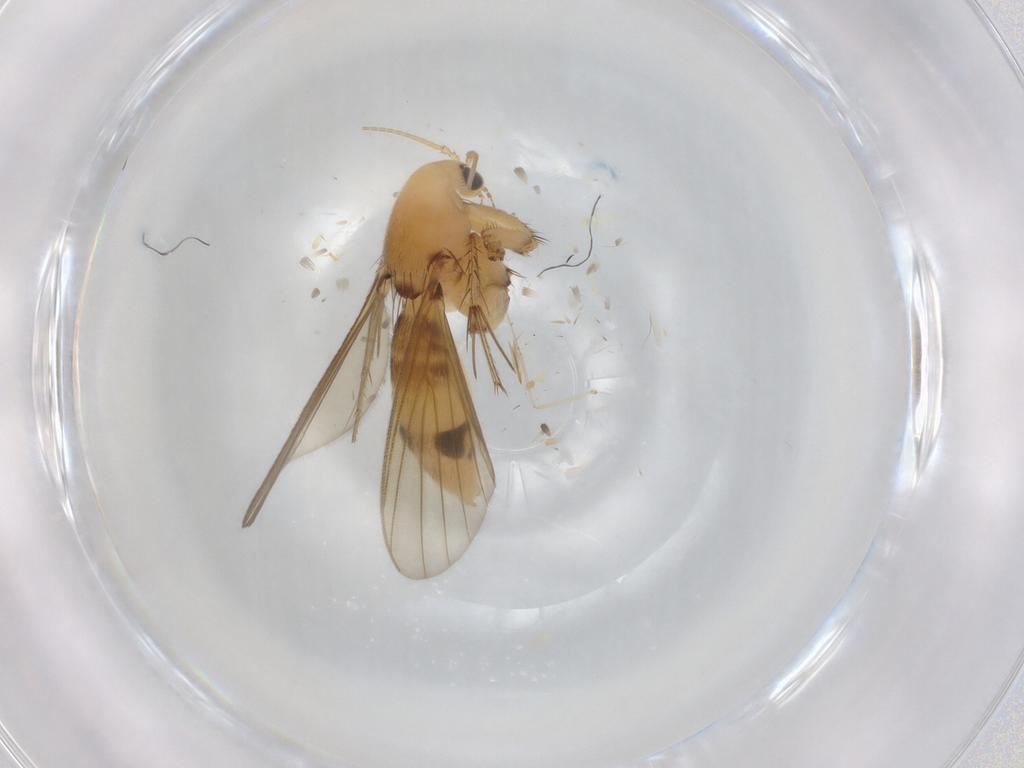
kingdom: Animalia
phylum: Arthropoda
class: Insecta
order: Diptera
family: Mycetophilidae
